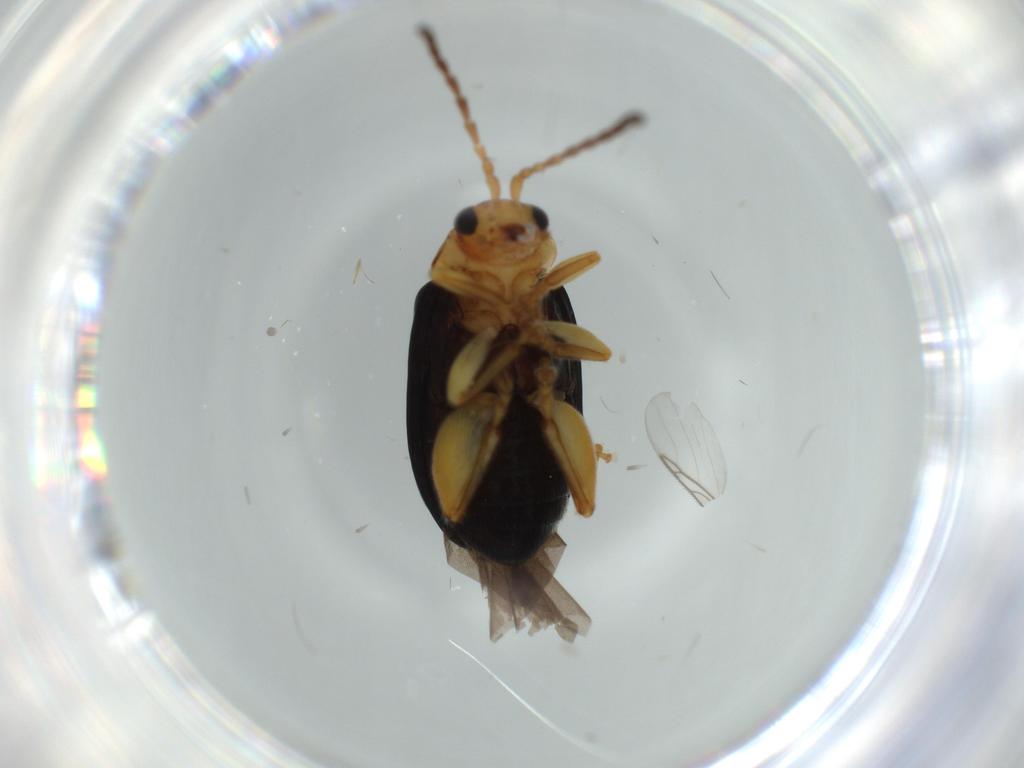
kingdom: Animalia
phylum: Arthropoda
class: Insecta
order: Coleoptera
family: Chrysomelidae
